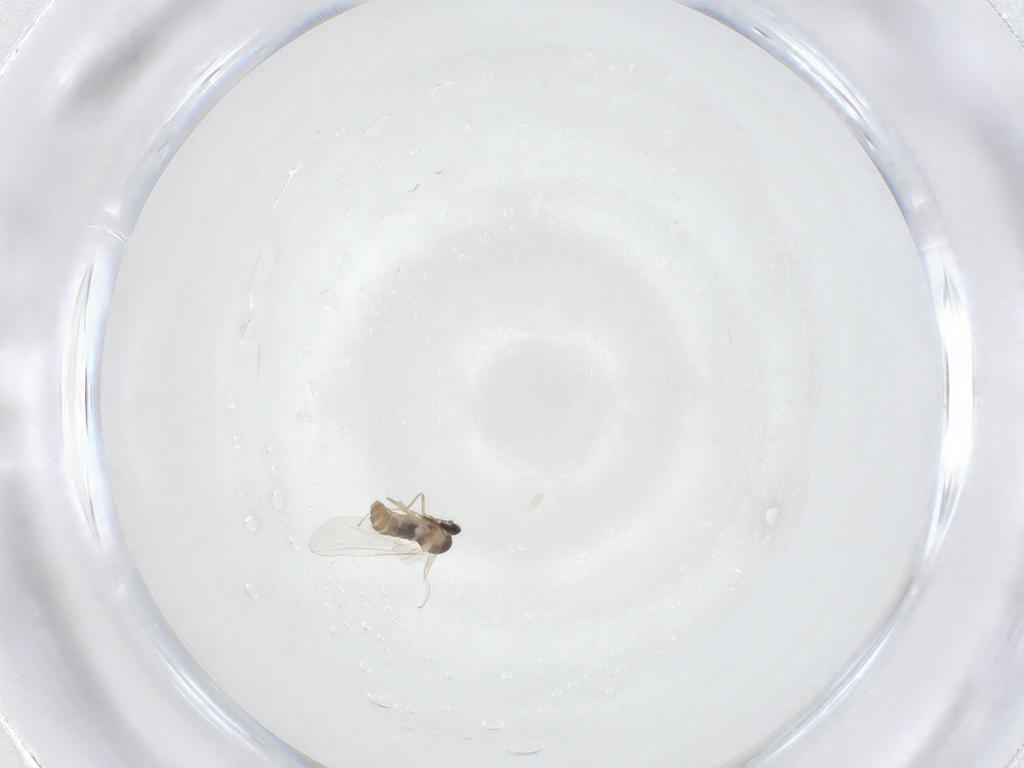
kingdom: Animalia
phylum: Arthropoda
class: Insecta
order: Diptera
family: Cecidomyiidae
